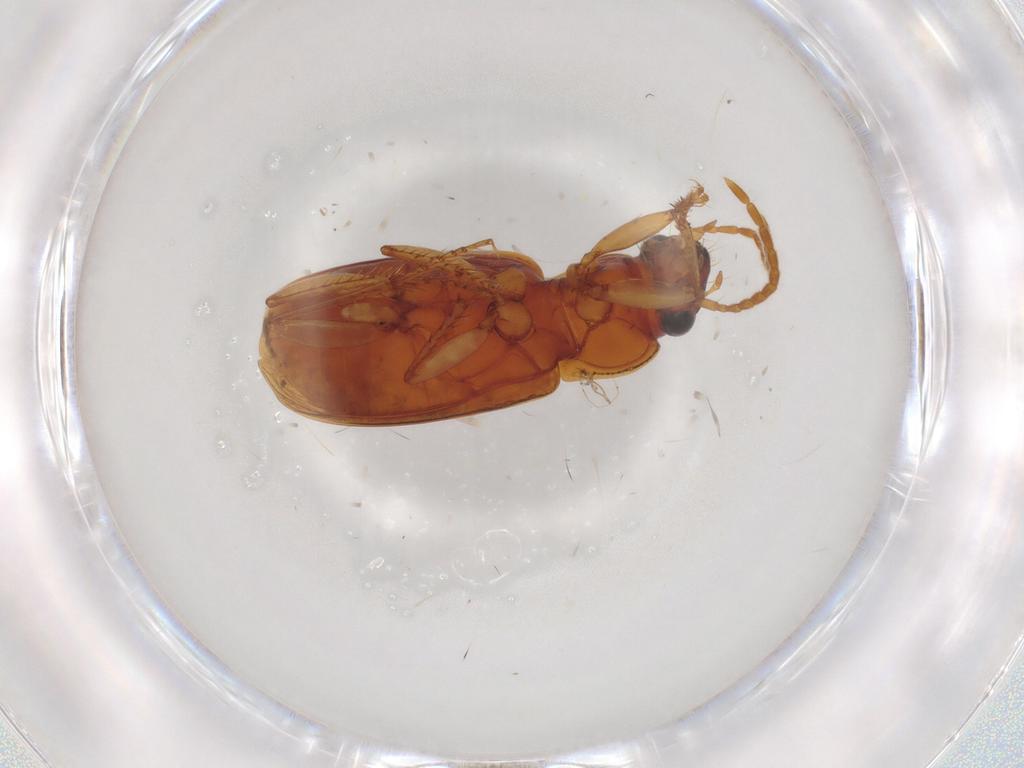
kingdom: Animalia
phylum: Arthropoda
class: Insecta
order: Coleoptera
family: Carabidae
